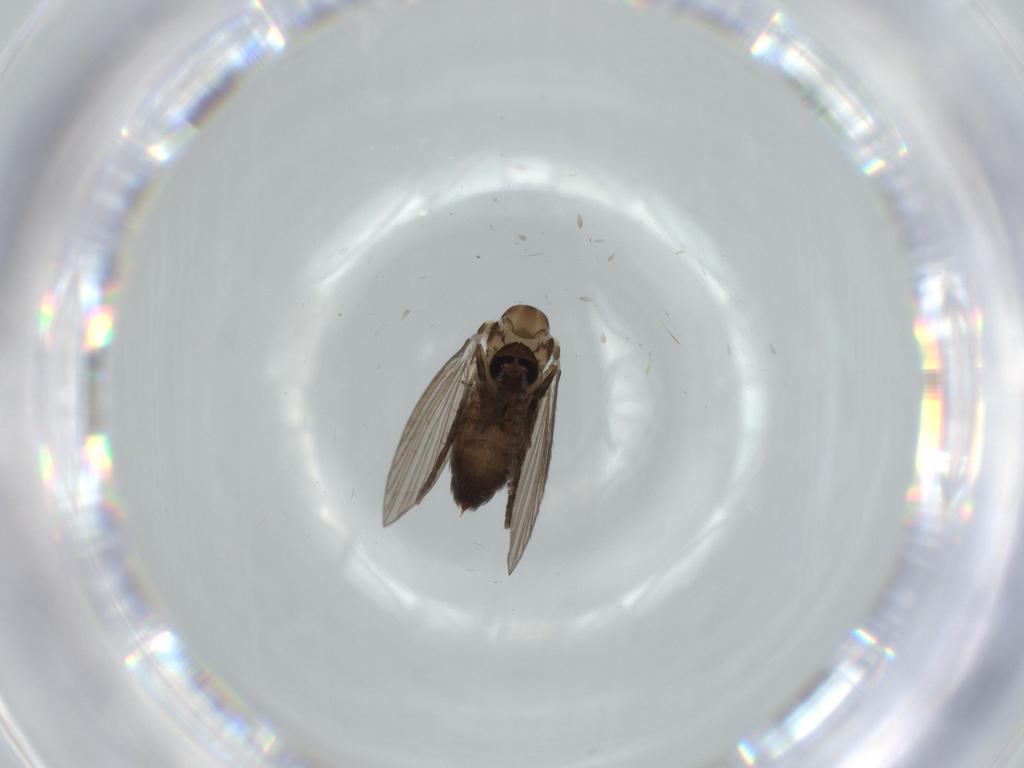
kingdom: Animalia
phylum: Arthropoda
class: Insecta
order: Diptera
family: Psychodidae
